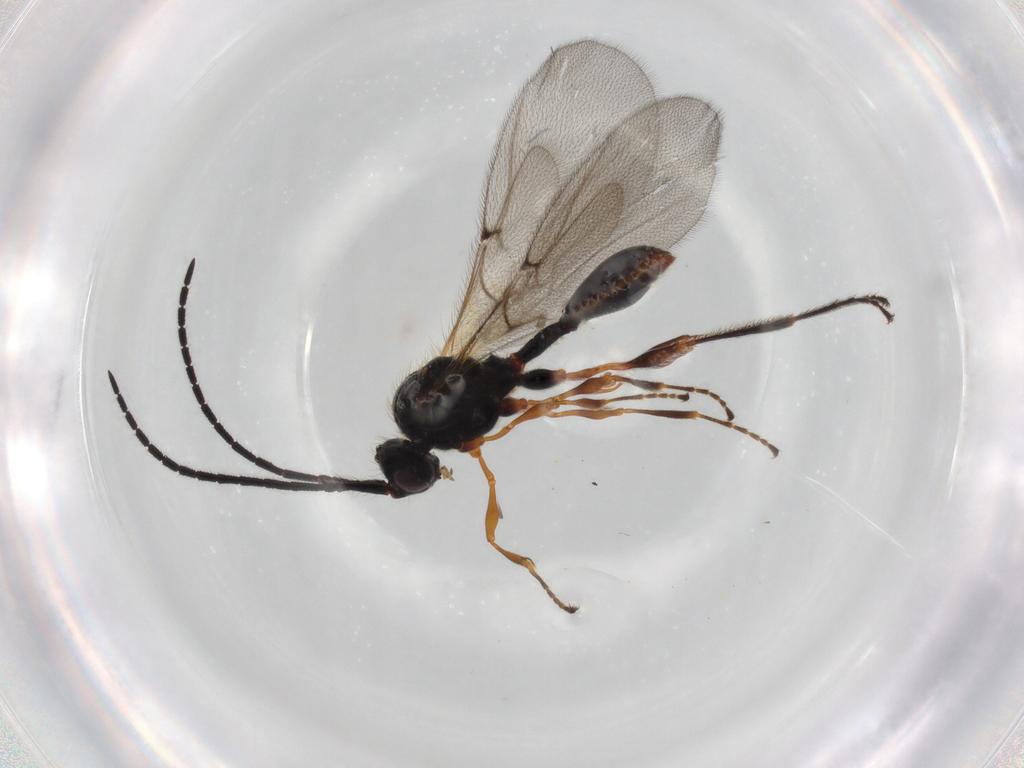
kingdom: Animalia
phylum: Arthropoda
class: Insecta
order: Hymenoptera
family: Diapriidae
